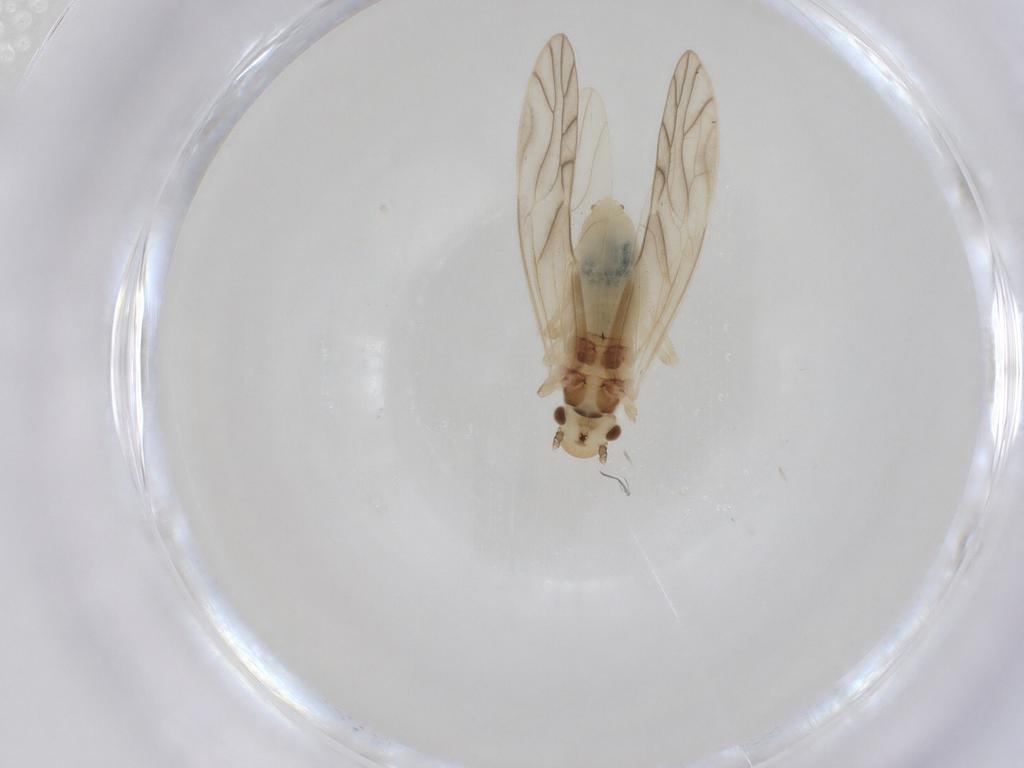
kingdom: Animalia
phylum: Arthropoda
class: Insecta
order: Psocodea
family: Caeciliusidae
